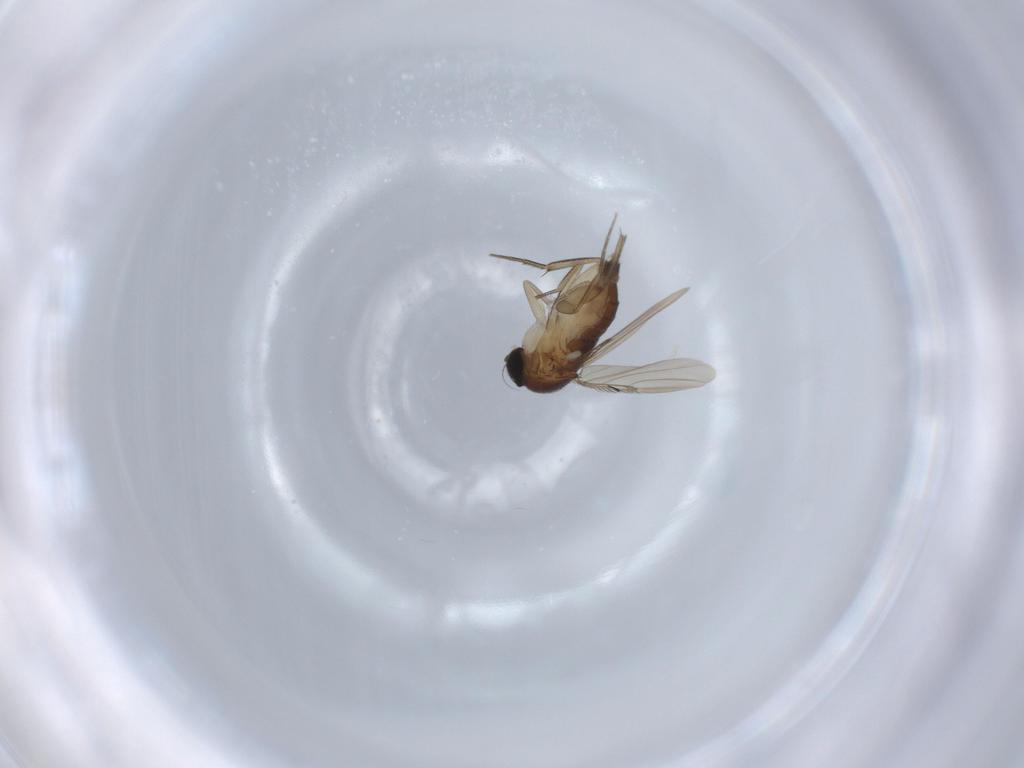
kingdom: Animalia
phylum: Arthropoda
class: Insecta
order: Diptera
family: Phoridae
